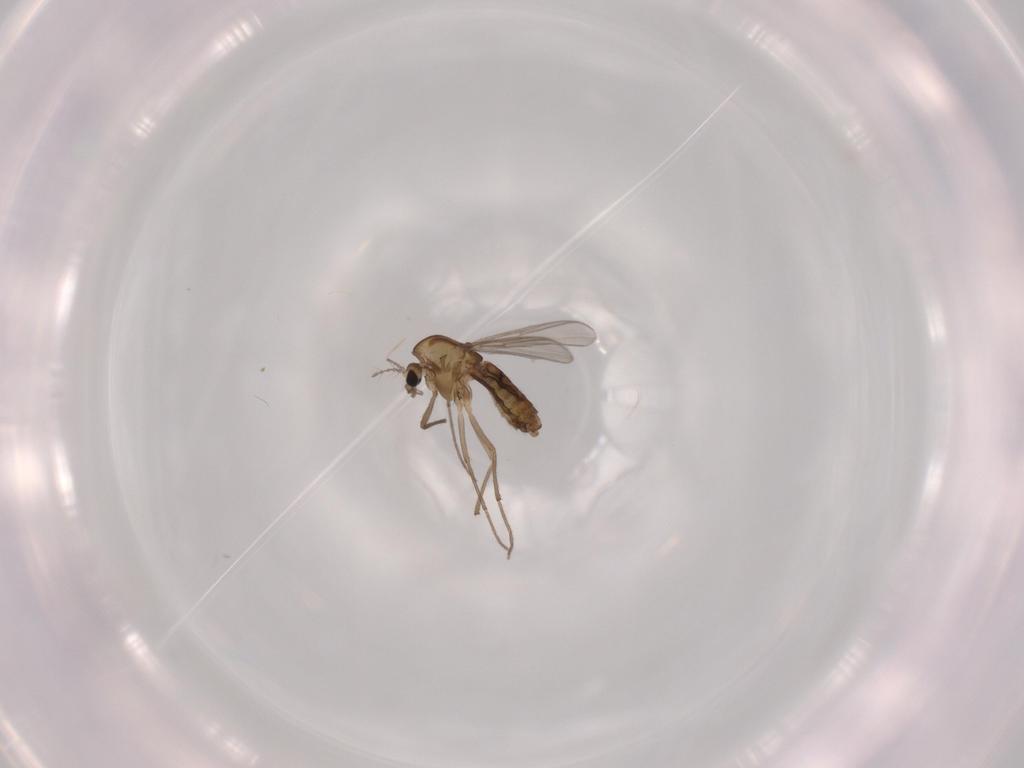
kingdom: Animalia
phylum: Arthropoda
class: Insecta
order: Diptera
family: Chironomidae
